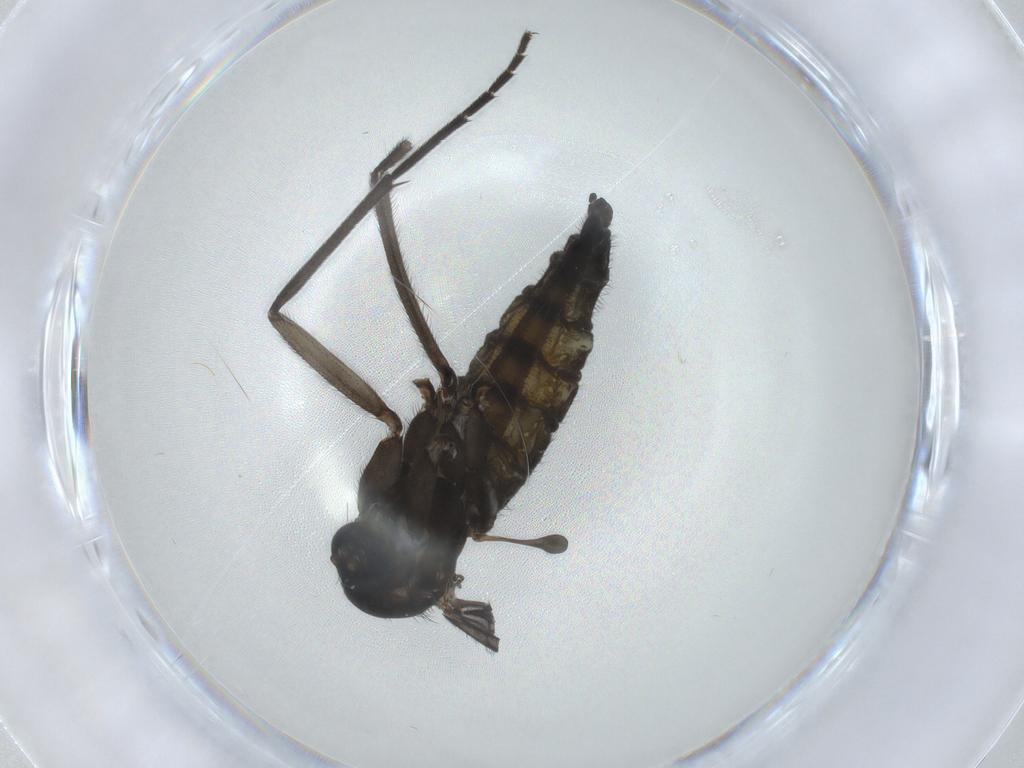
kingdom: Animalia
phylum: Arthropoda
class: Insecta
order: Diptera
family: Sciaridae
